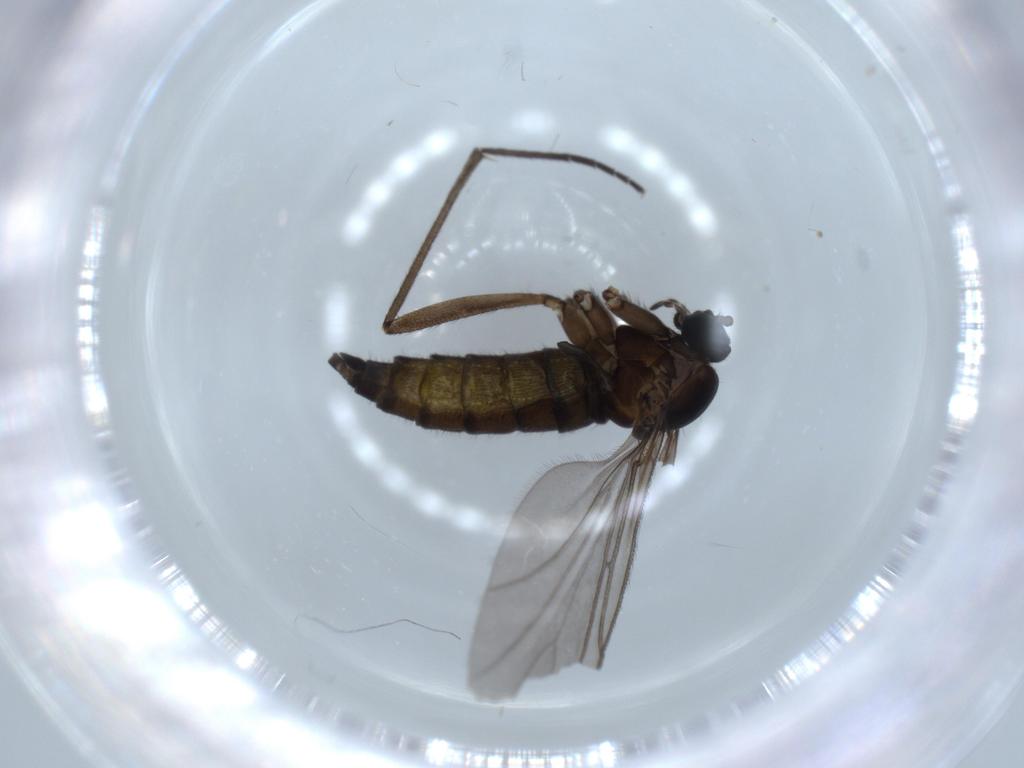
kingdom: Animalia
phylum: Arthropoda
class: Insecta
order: Diptera
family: Sciaridae
